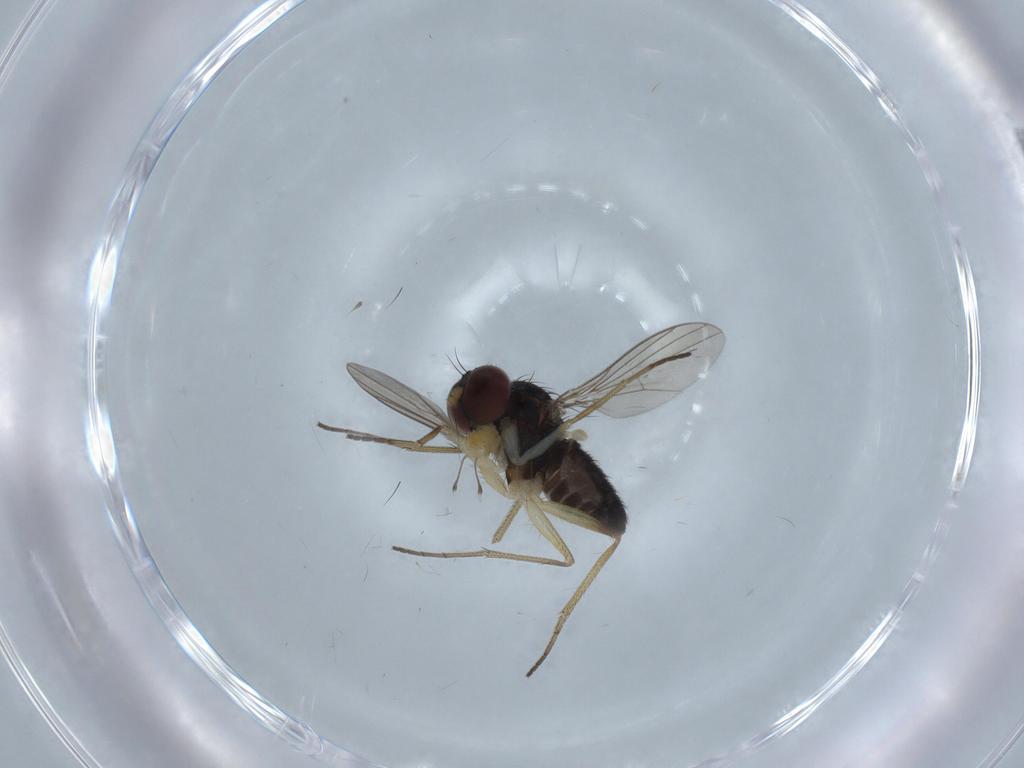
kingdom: Animalia
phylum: Arthropoda
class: Insecta
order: Diptera
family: Dolichopodidae
